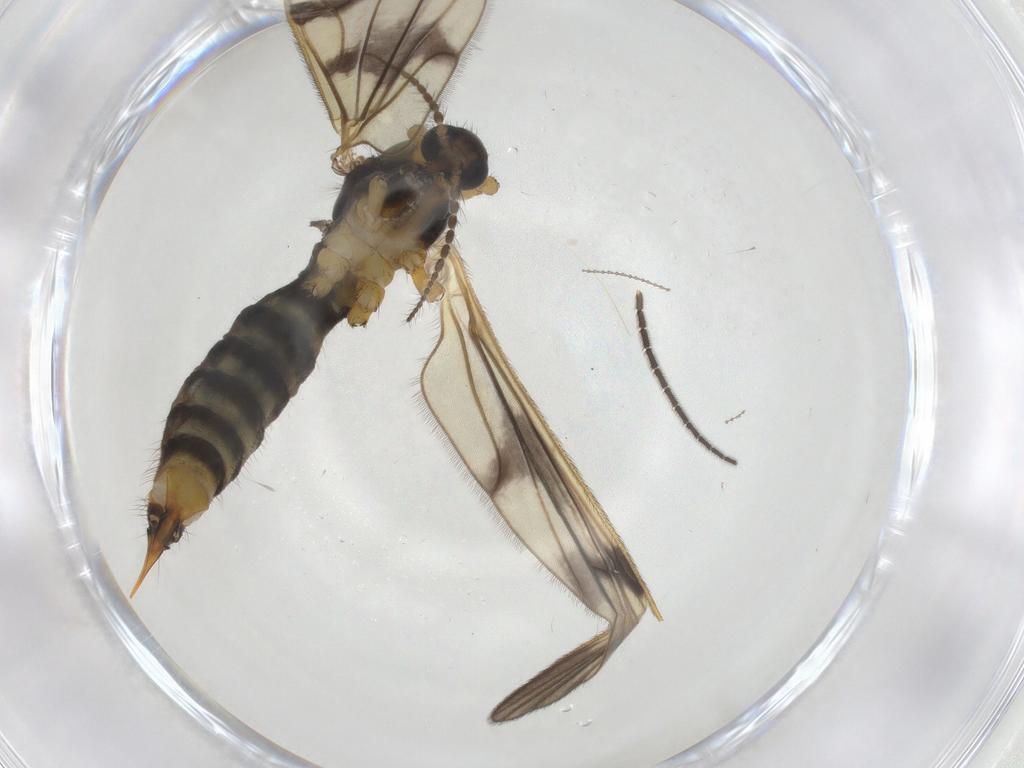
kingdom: Animalia
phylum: Arthropoda
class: Insecta
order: Diptera
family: Limoniidae
